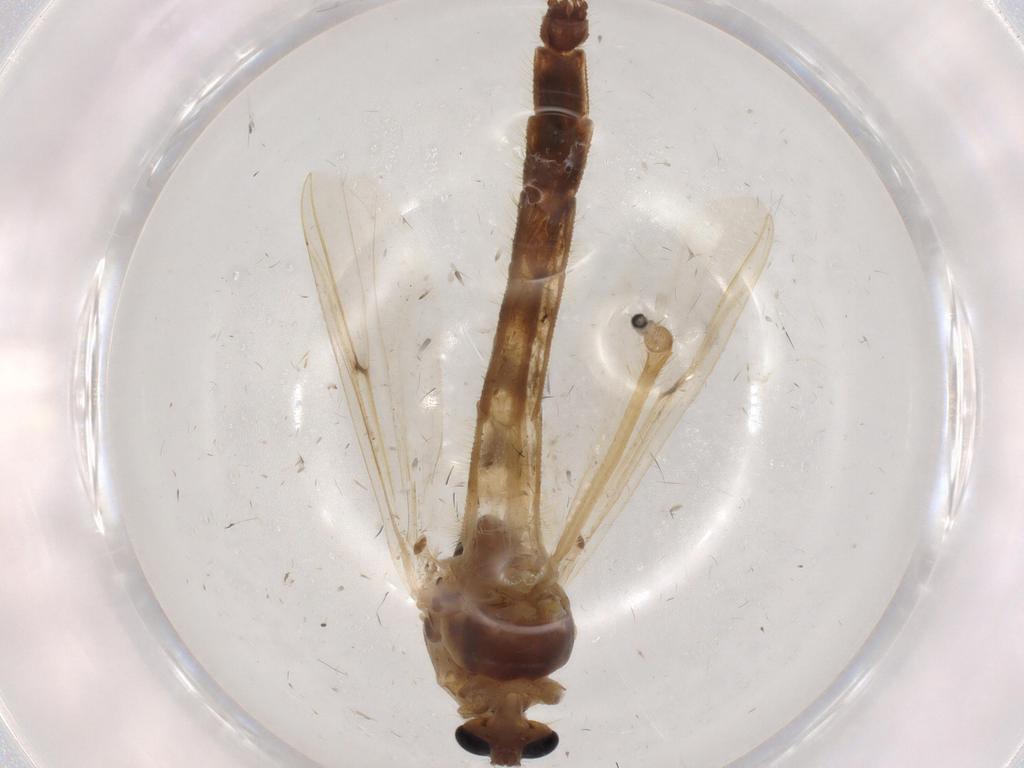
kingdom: Animalia
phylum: Arthropoda
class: Insecta
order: Diptera
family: Chironomidae
